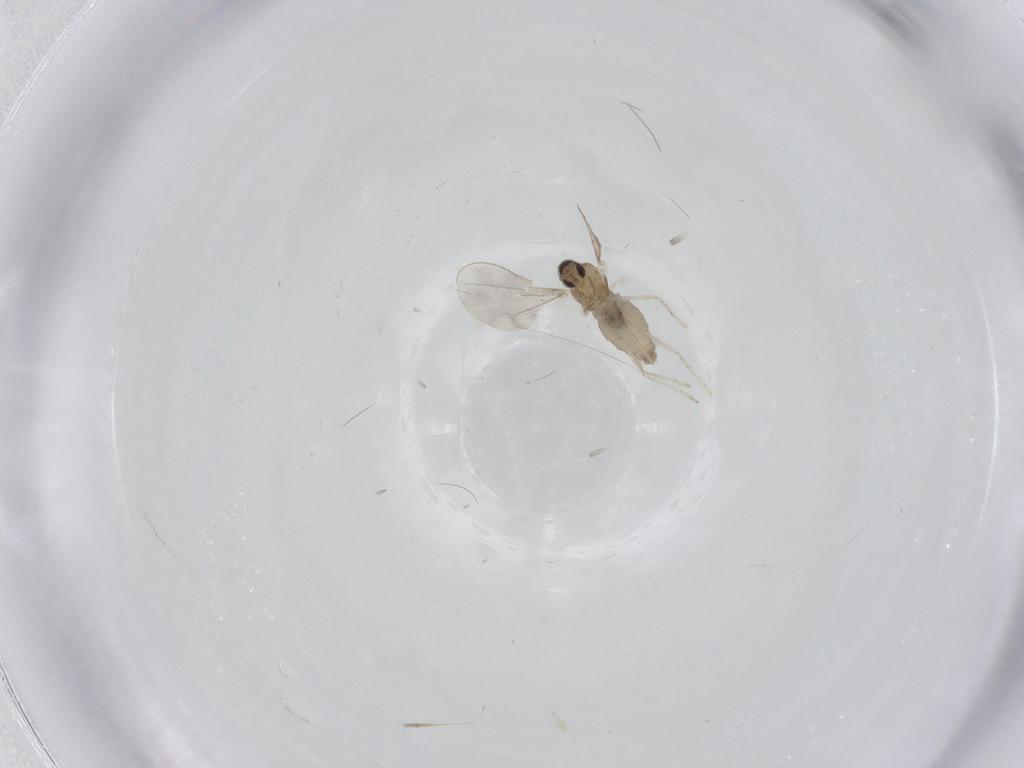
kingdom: Animalia
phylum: Arthropoda
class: Insecta
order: Diptera
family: Cecidomyiidae
